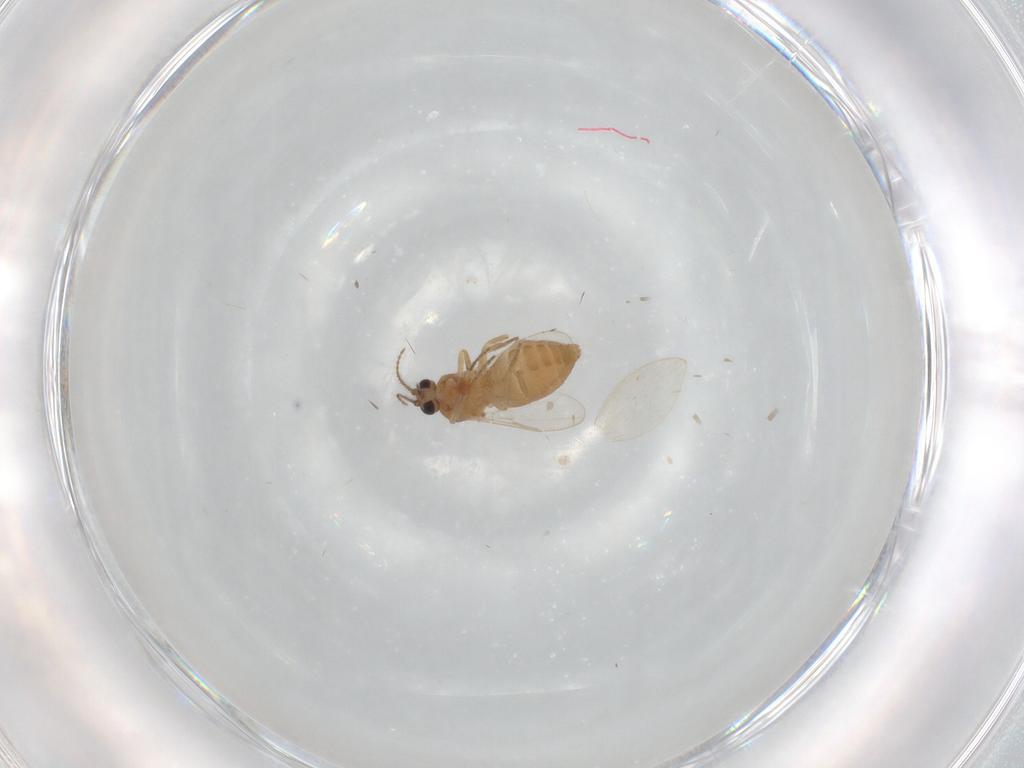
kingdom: Animalia
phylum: Arthropoda
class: Insecta
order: Diptera
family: Ceratopogonidae
